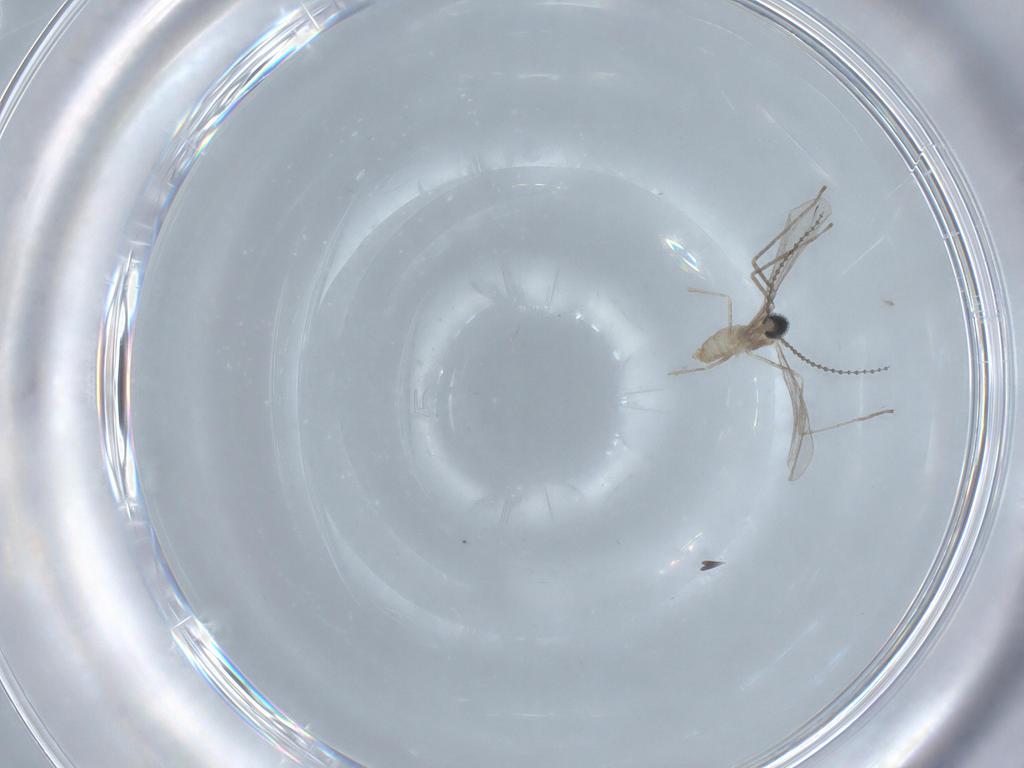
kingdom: Animalia
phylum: Arthropoda
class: Insecta
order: Diptera
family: Cecidomyiidae
